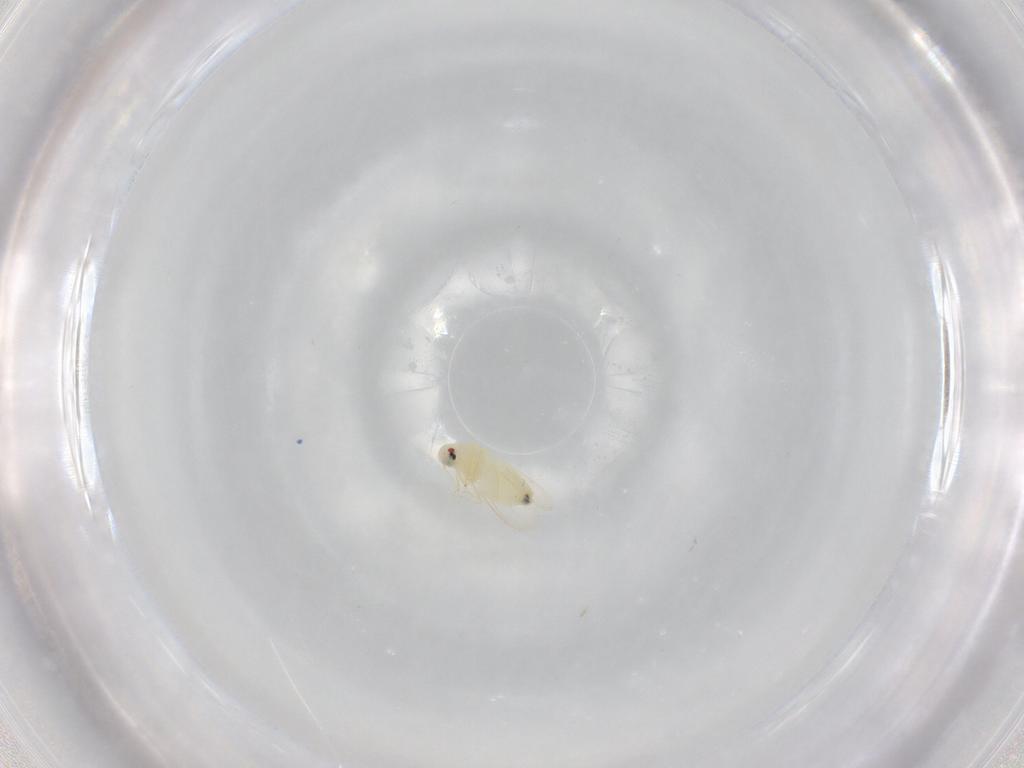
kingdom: Animalia
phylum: Arthropoda
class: Insecta
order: Hemiptera
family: Aleyrodidae
